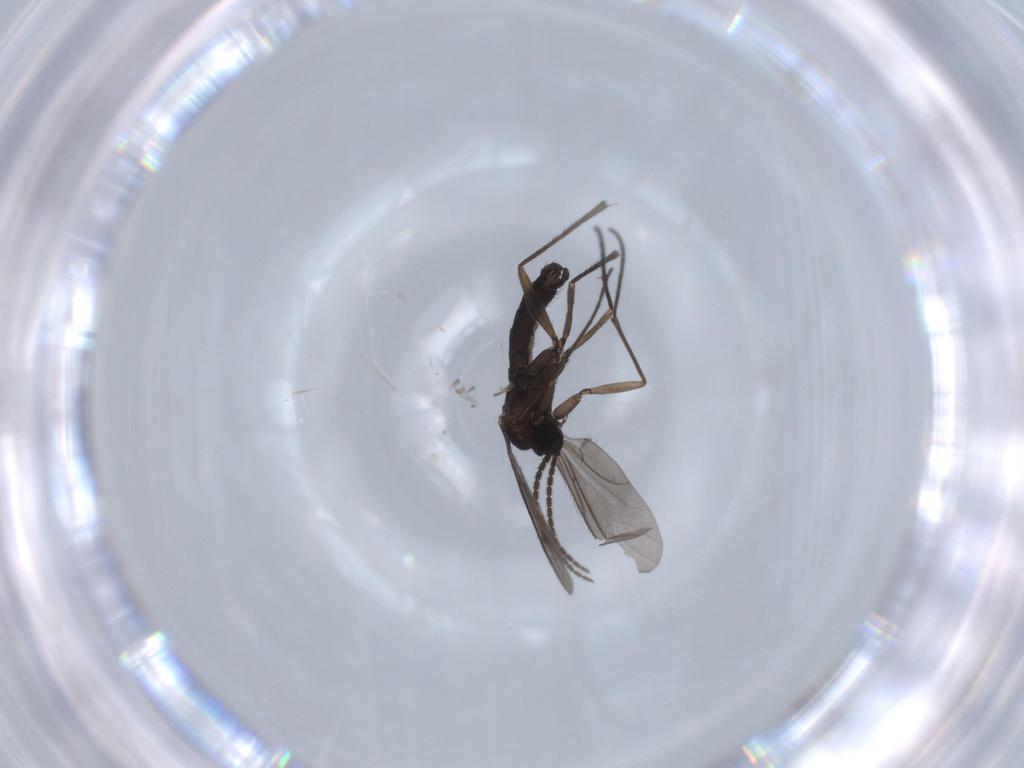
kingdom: Animalia
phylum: Arthropoda
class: Insecta
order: Diptera
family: Sciaridae
